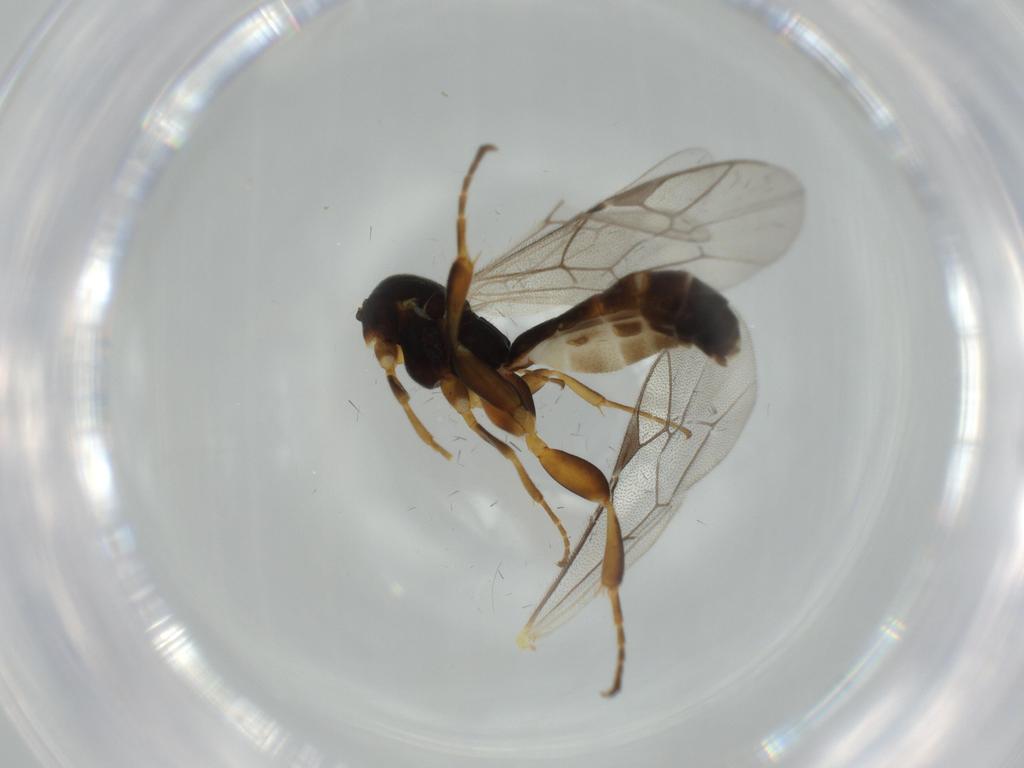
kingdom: Animalia
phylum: Arthropoda
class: Insecta
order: Hymenoptera
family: Ichneumonidae
